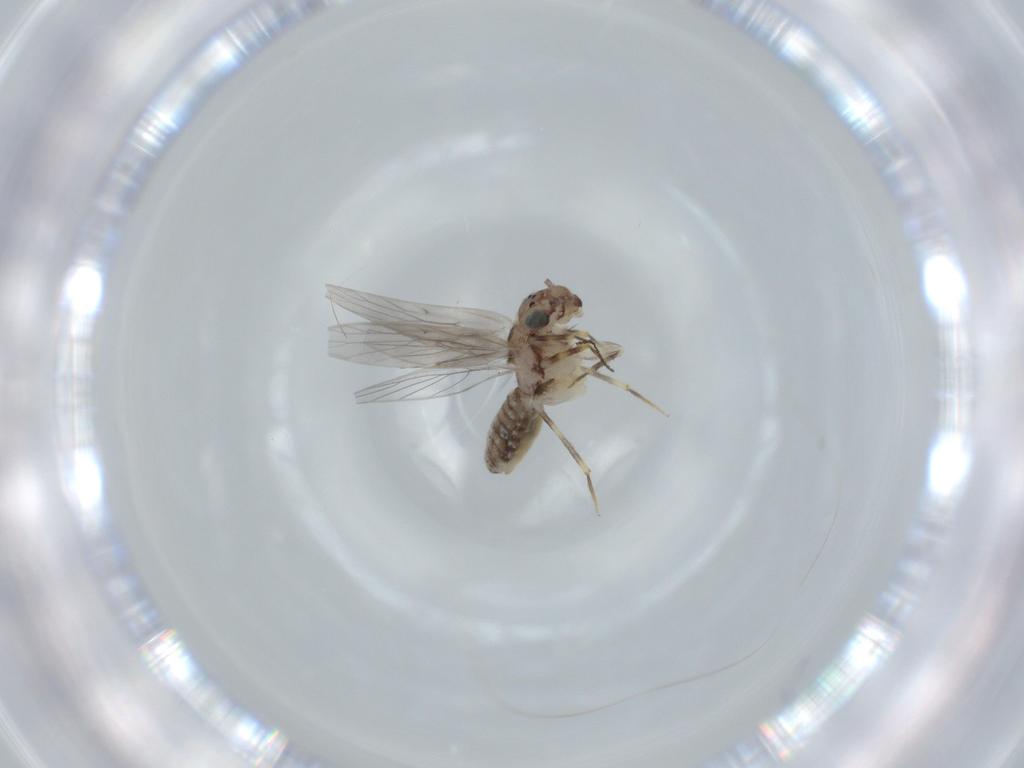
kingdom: Animalia
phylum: Arthropoda
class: Insecta
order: Psocodea
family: Lepidopsocidae
